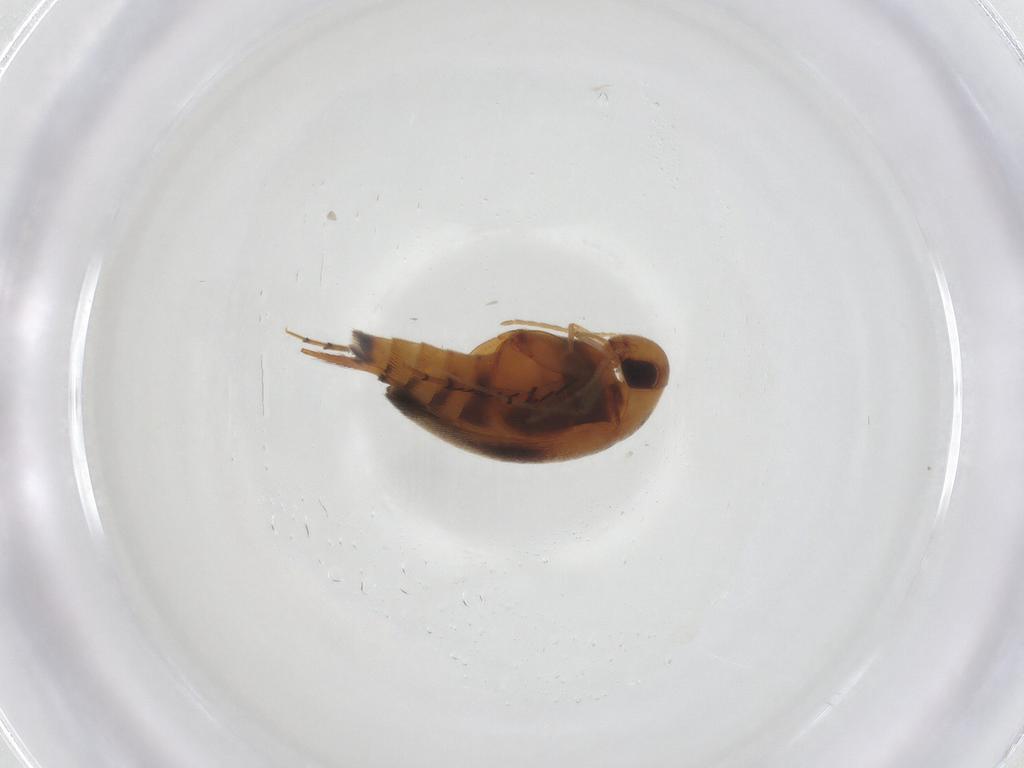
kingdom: Animalia
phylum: Arthropoda
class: Insecta
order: Coleoptera
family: Mordellidae
